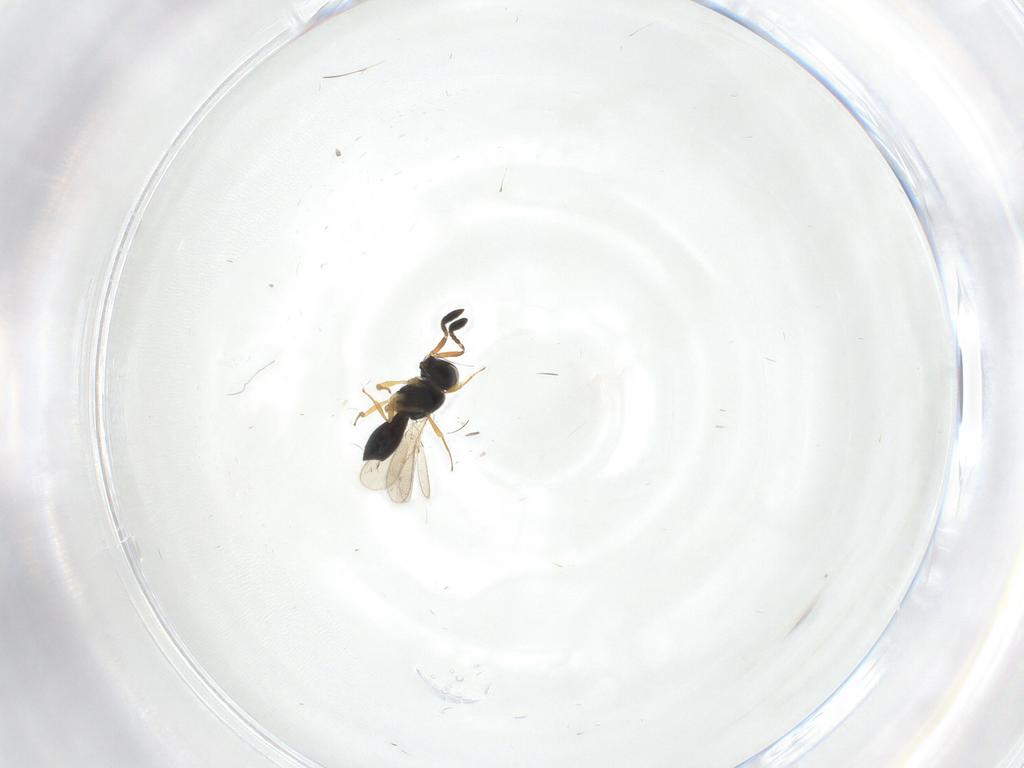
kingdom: Animalia
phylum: Arthropoda
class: Insecta
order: Hymenoptera
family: Scelionidae
